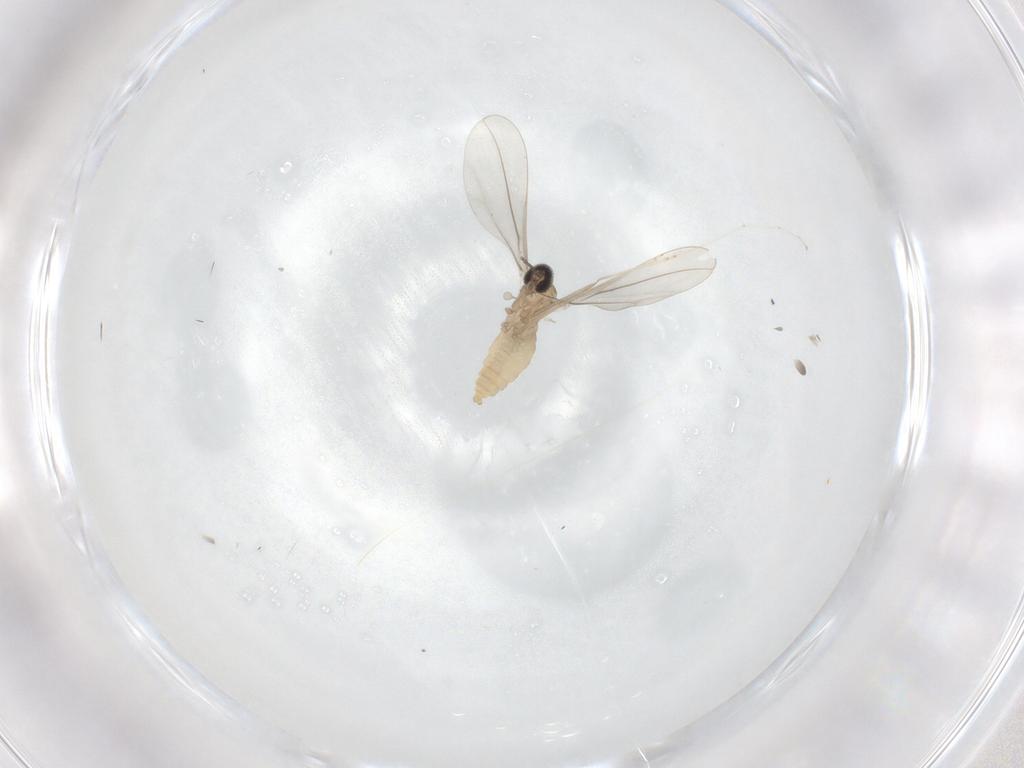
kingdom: Animalia
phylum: Arthropoda
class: Insecta
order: Diptera
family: Cecidomyiidae
